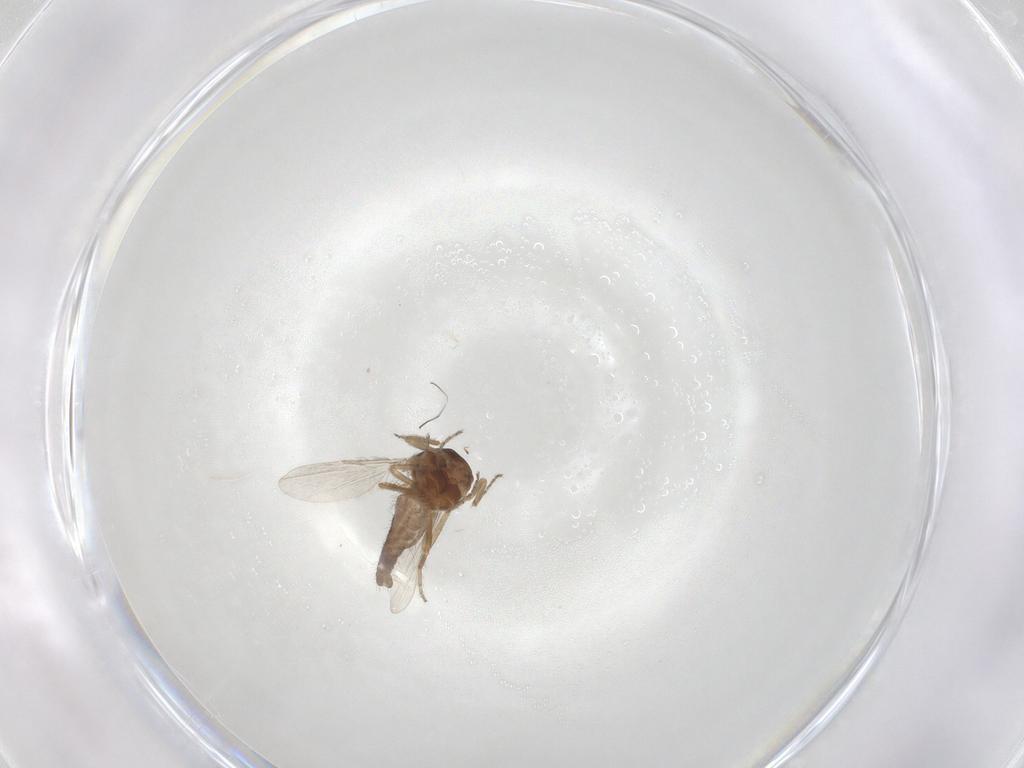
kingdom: Animalia
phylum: Arthropoda
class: Insecta
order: Diptera
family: Ceratopogonidae
